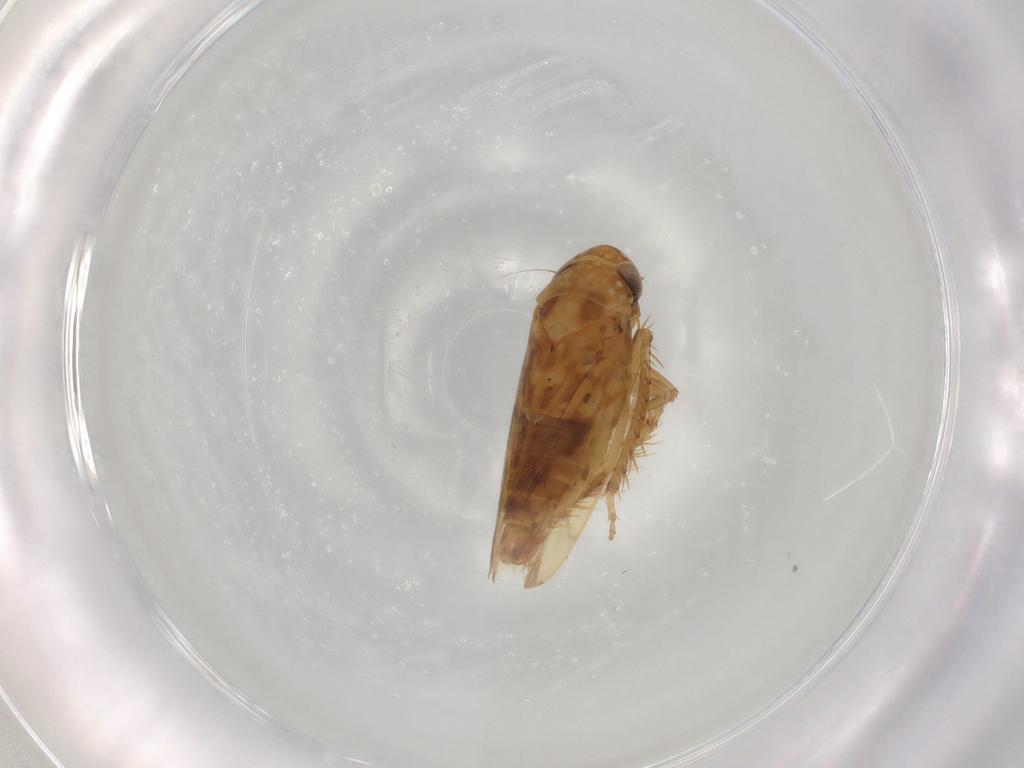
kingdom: Animalia
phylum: Arthropoda
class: Insecta
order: Hemiptera
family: Cicadellidae
